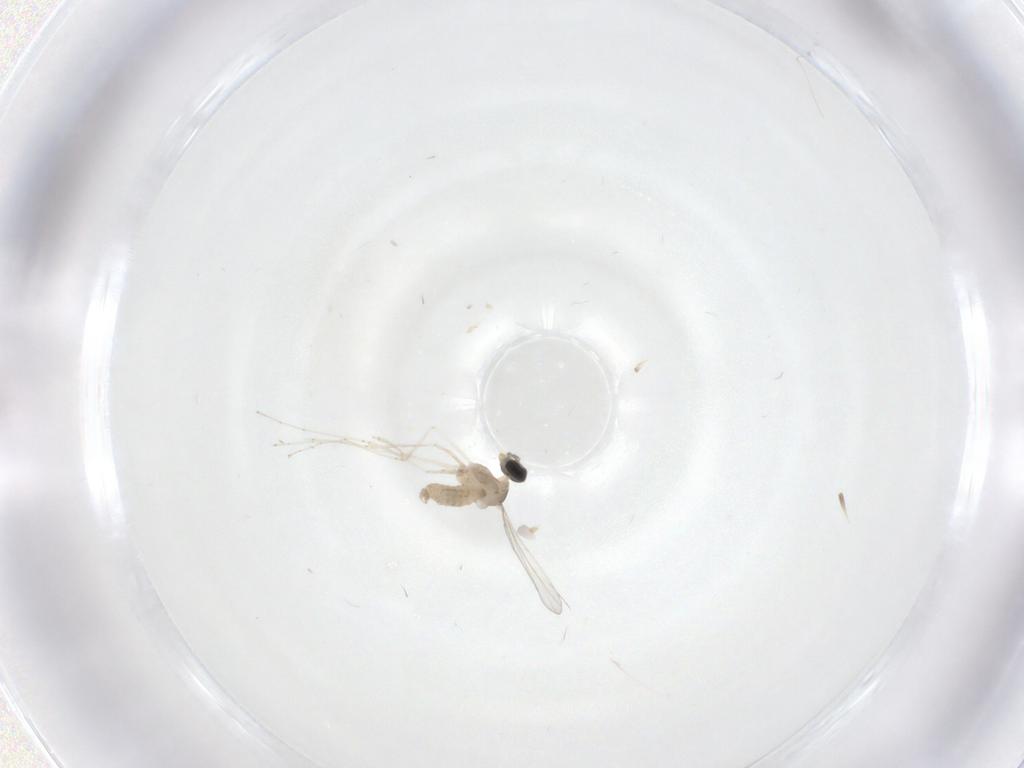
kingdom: Animalia
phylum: Arthropoda
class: Insecta
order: Diptera
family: Cecidomyiidae
